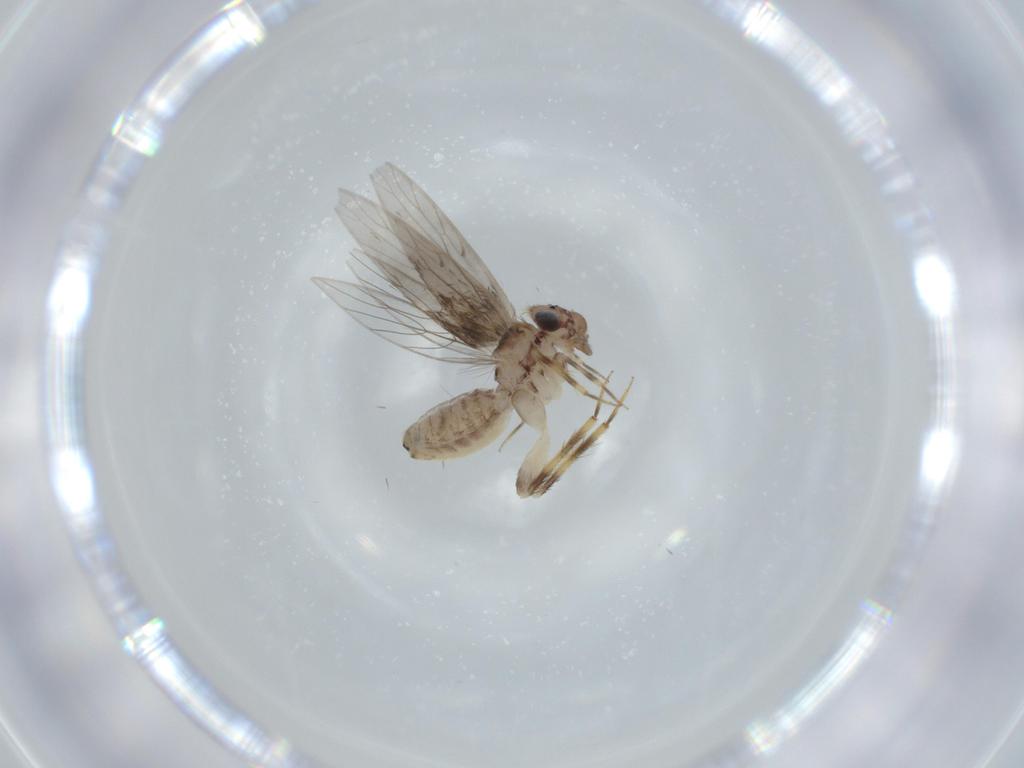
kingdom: Animalia
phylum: Arthropoda
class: Insecta
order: Psocodea
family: Lepidopsocidae
